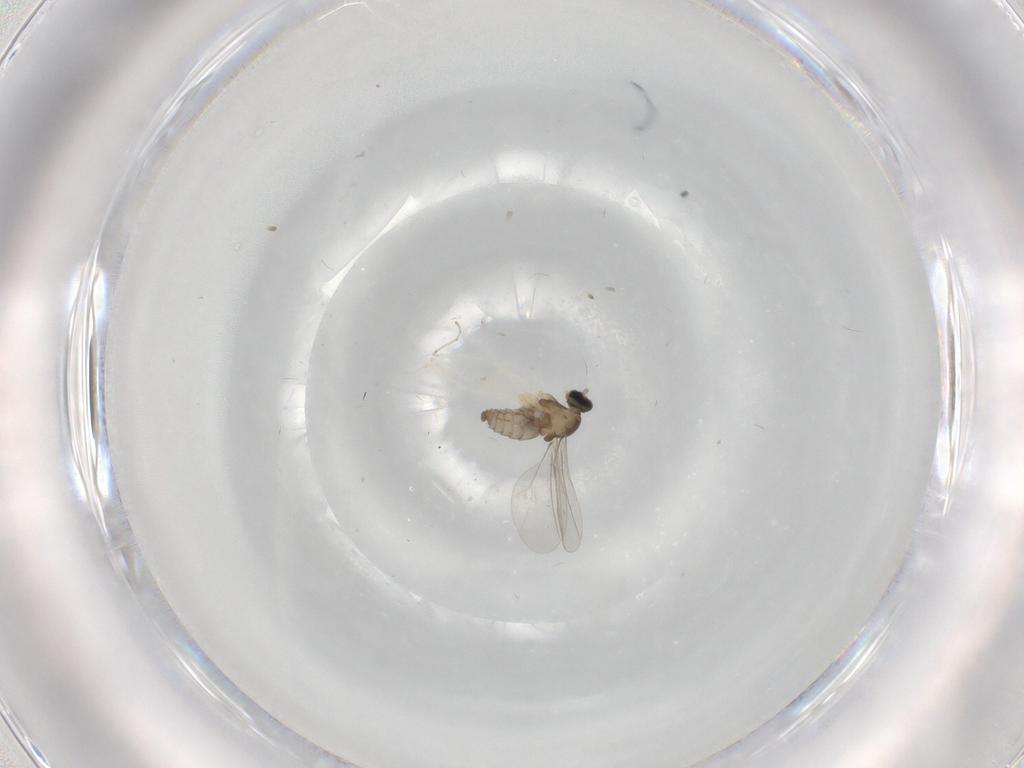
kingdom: Animalia
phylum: Arthropoda
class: Insecta
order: Diptera
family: Cecidomyiidae
